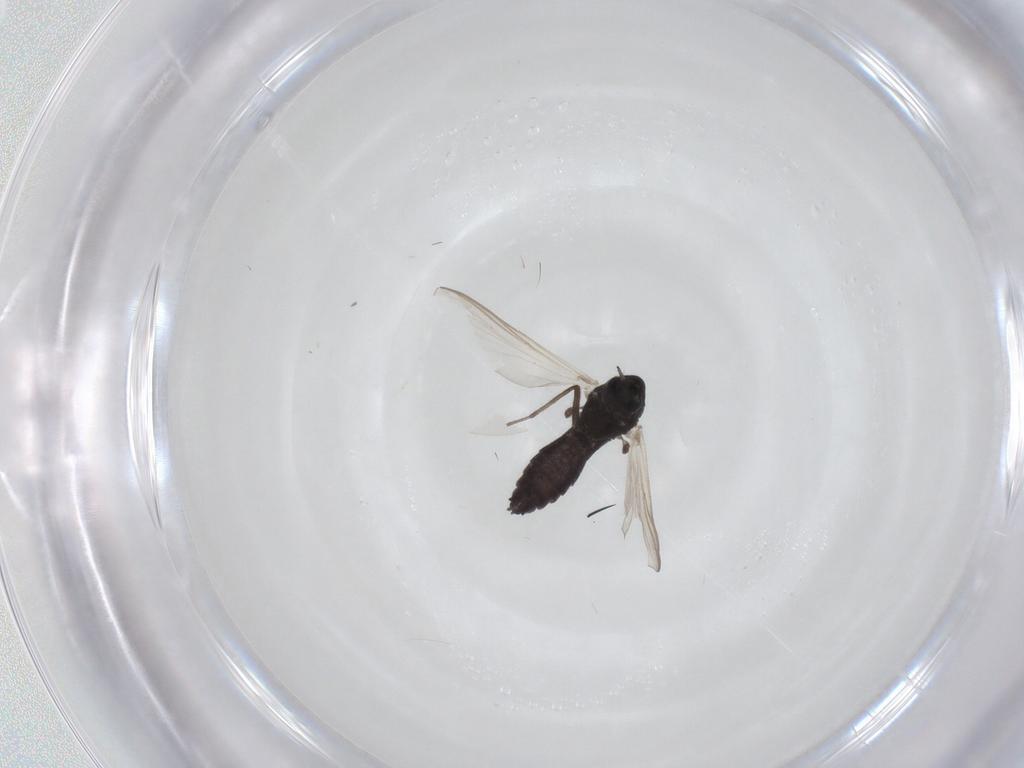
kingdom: Animalia
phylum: Arthropoda
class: Insecta
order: Diptera
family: Chironomidae
